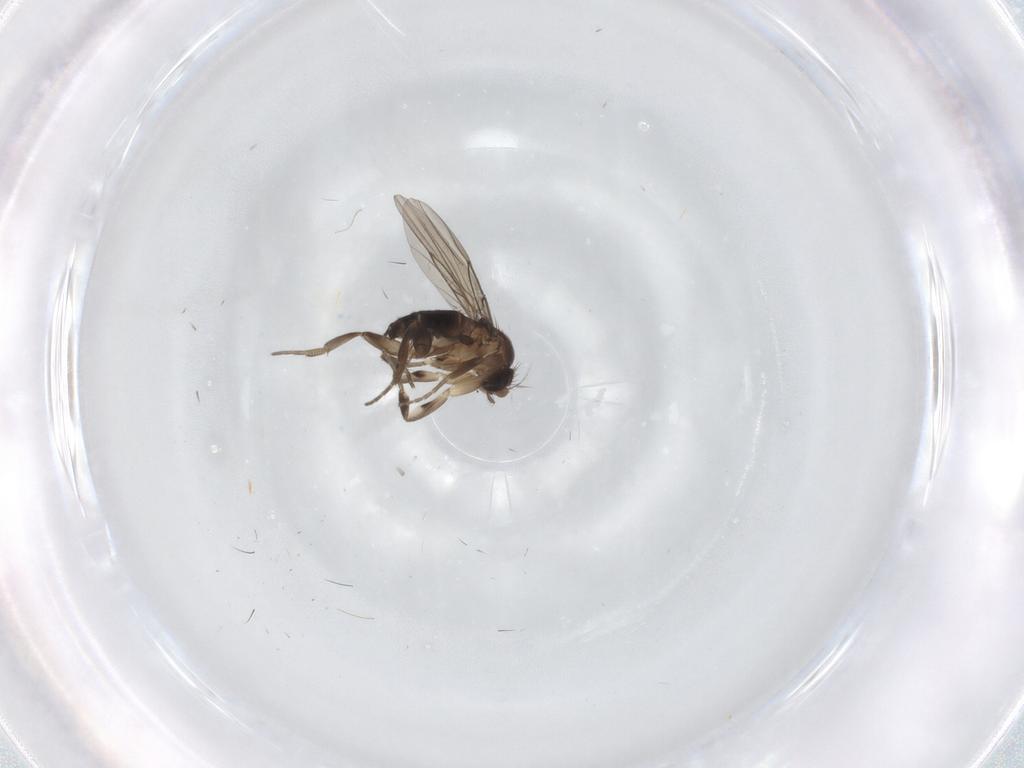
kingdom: Animalia
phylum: Arthropoda
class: Insecta
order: Diptera
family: Phoridae
